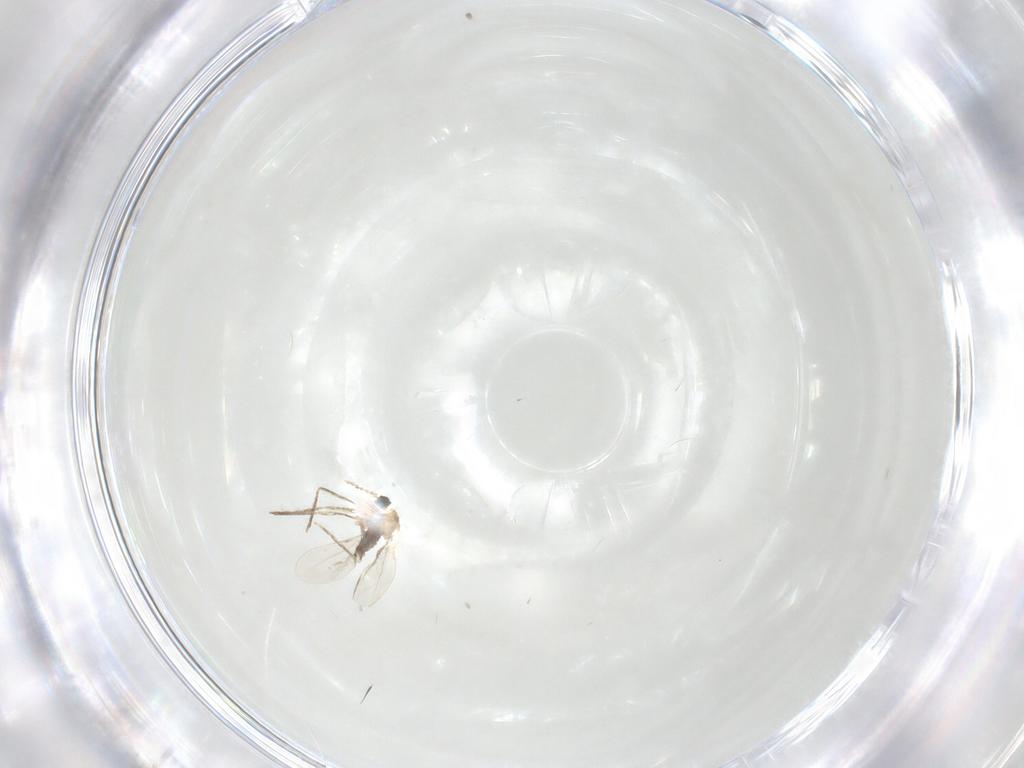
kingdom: Animalia
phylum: Arthropoda
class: Insecta
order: Diptera
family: Cecidomyiidae
